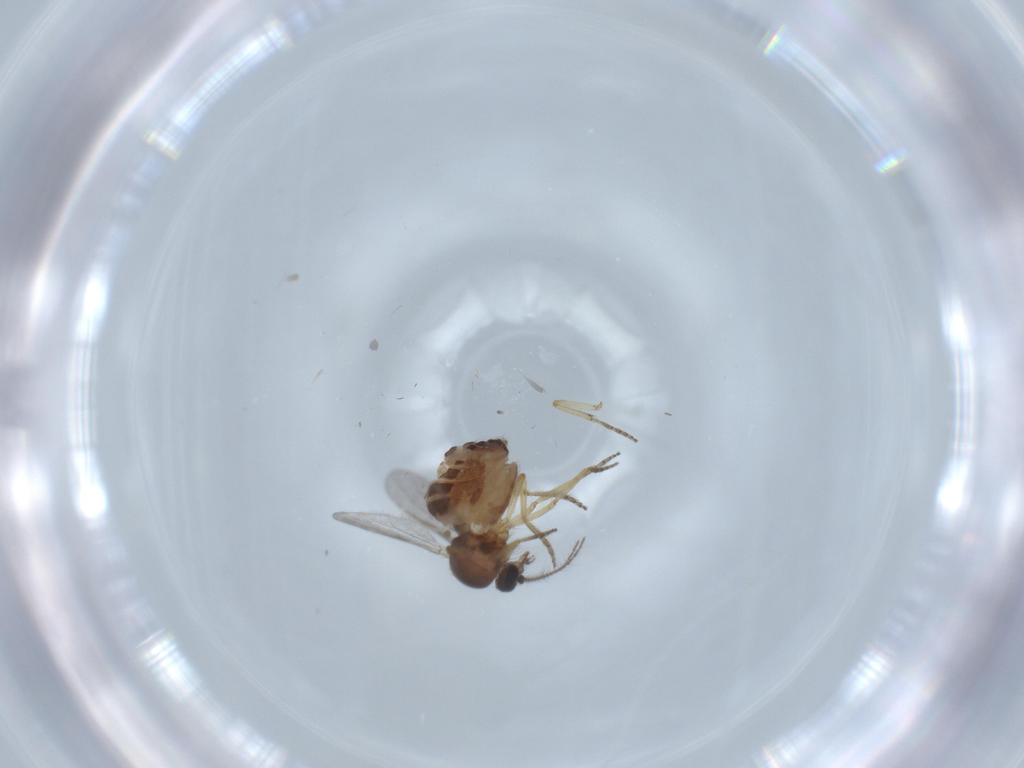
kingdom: Animalia
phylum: Arthropoda
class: Insecta
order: Diptera
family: Ceratopogonidae
